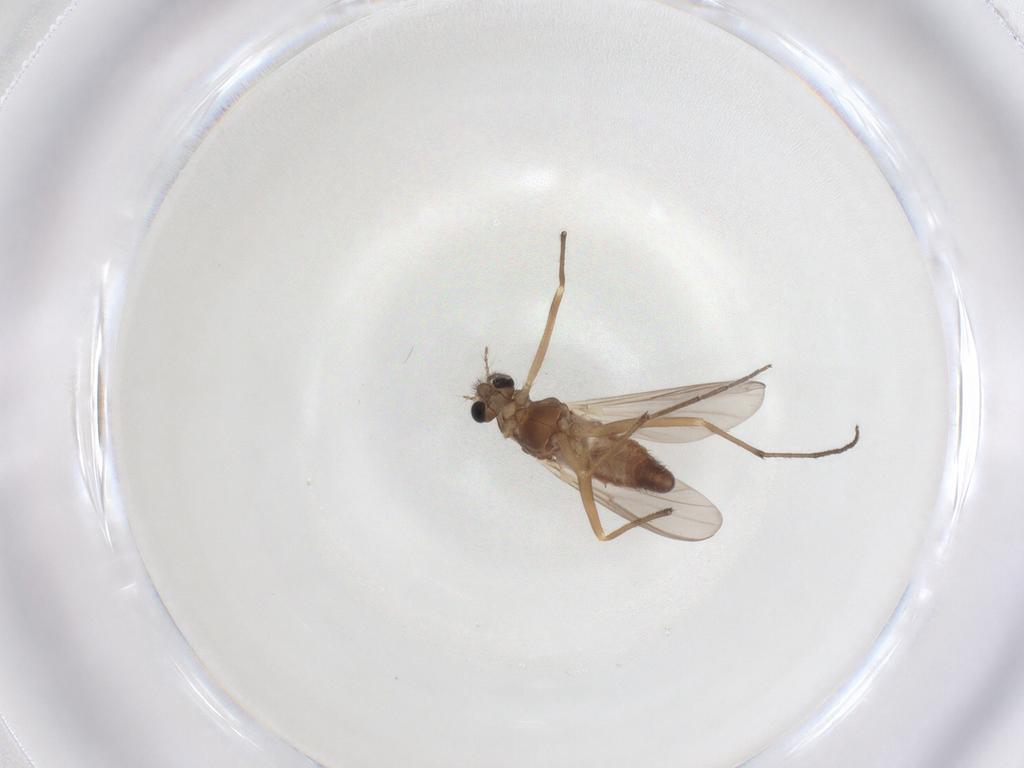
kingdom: Animalia
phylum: Arthropoda
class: Insecta
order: Diptera
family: Chironomidae
